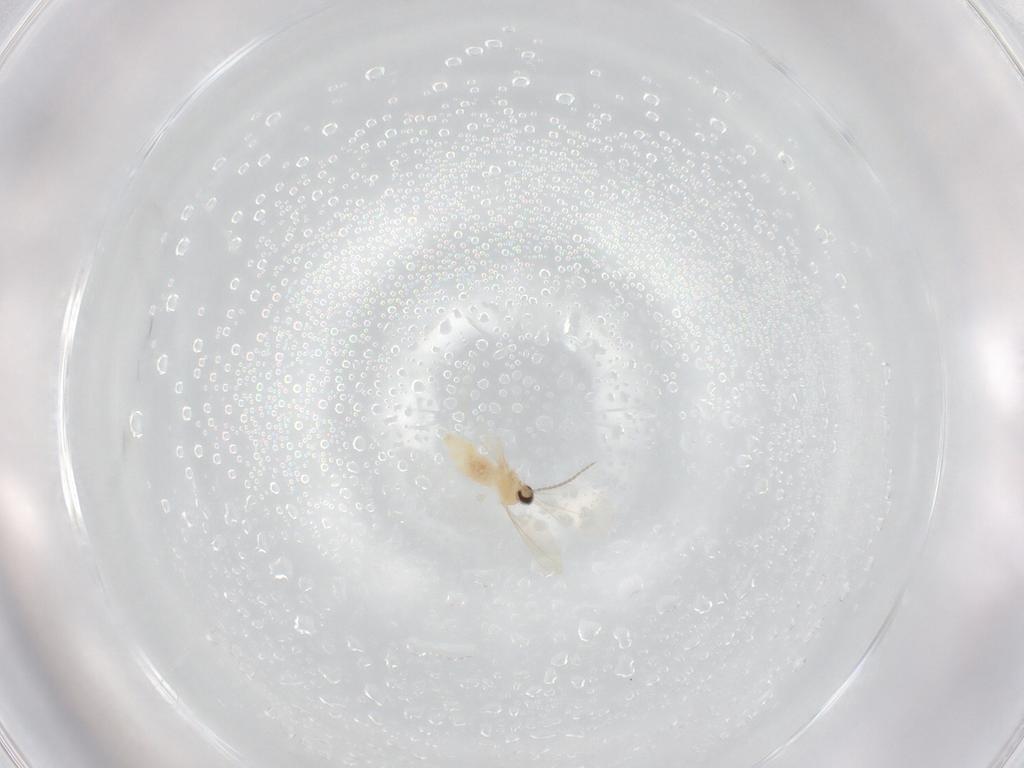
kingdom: Animalia
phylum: Arthropoda
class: Insecta
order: Diptera
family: Cecidomyiidae
